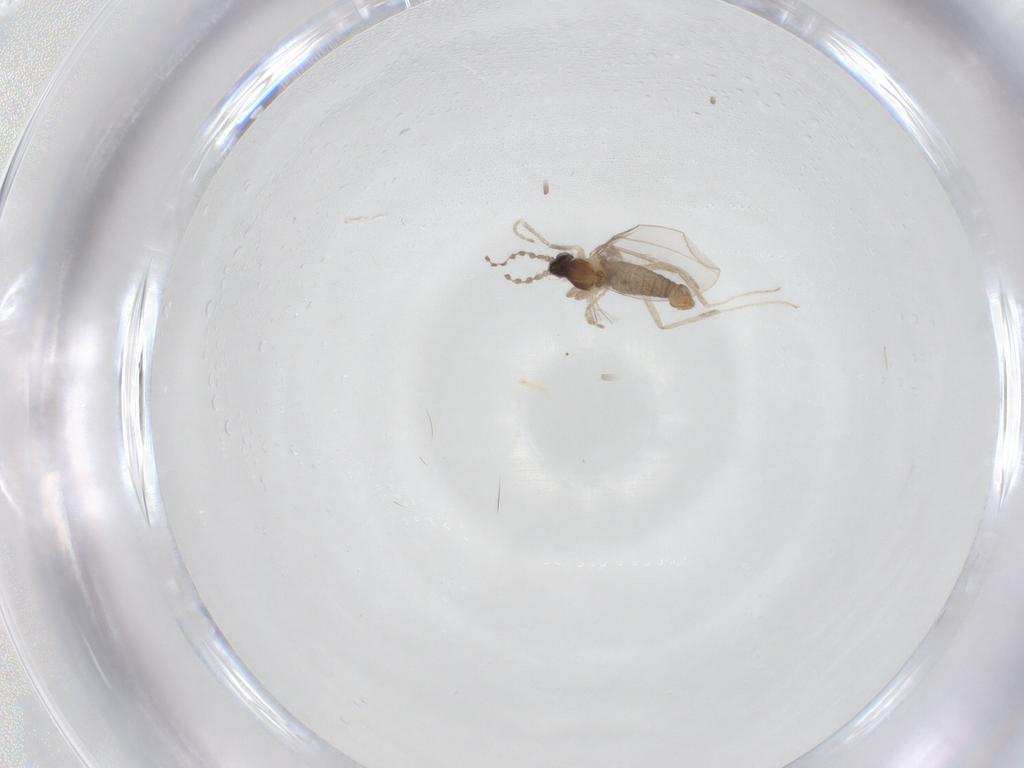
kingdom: Animalia
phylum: Arthropoda
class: Insecta
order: Diptera
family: Cecidomyiidae
